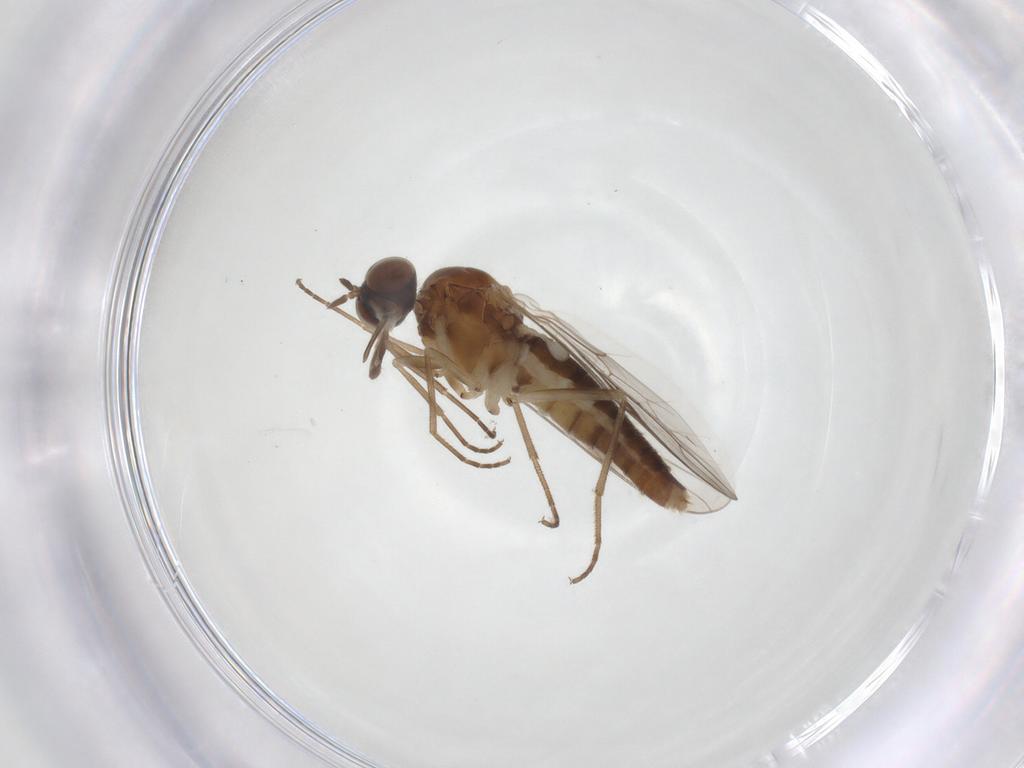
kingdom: Animalia
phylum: Arthropoda
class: Insecta
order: Diptera
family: Scenopinidae
